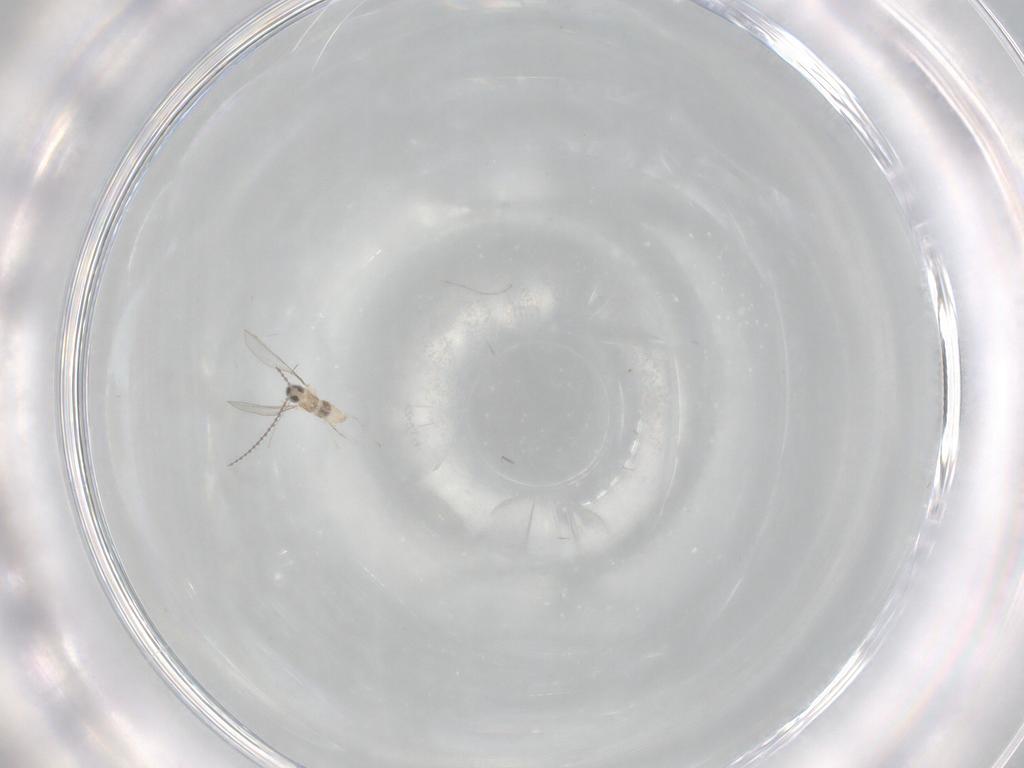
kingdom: Animalia
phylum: Arthropoda
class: Insecta
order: Diptera
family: Cecidomyiidae
